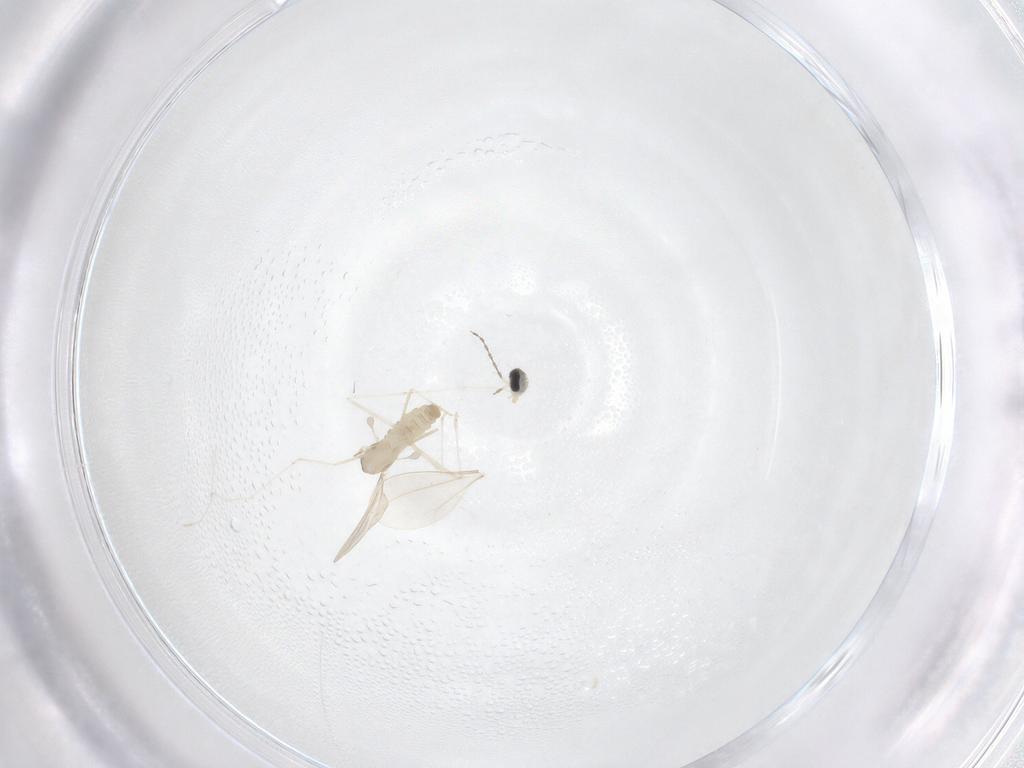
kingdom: Animalia
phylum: Arthropoda
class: Insecta
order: Diptera
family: Cecidomyiidae
